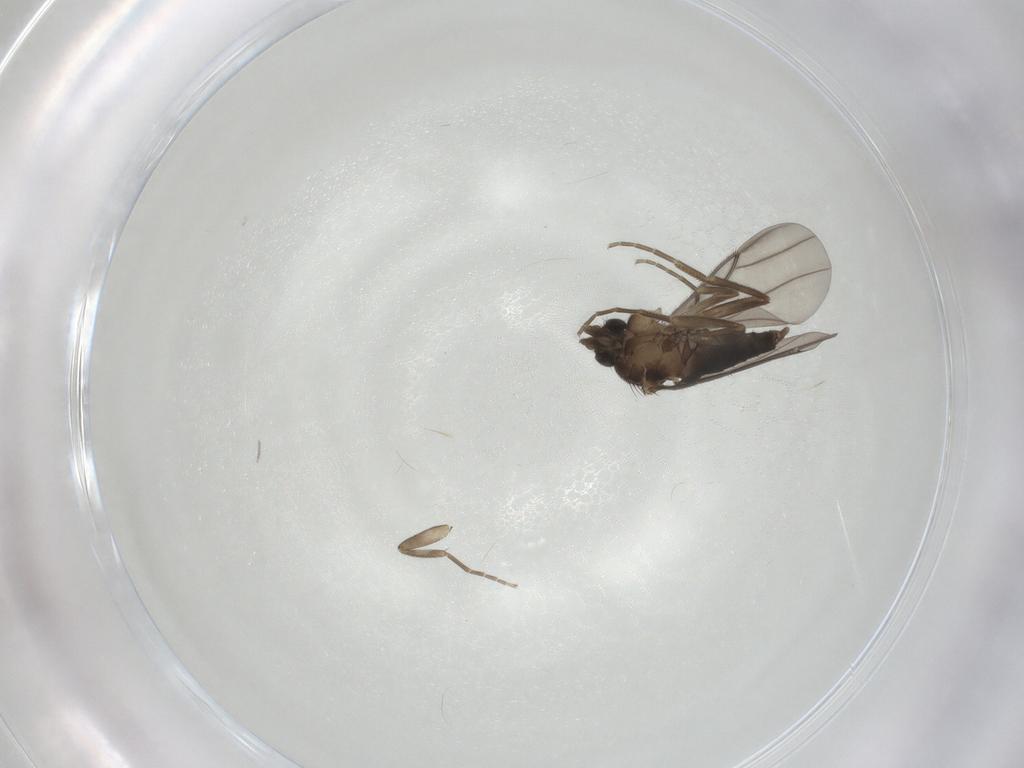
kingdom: Animalia
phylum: Arthropoda
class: Insecta
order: Diptera
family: Phoridae
